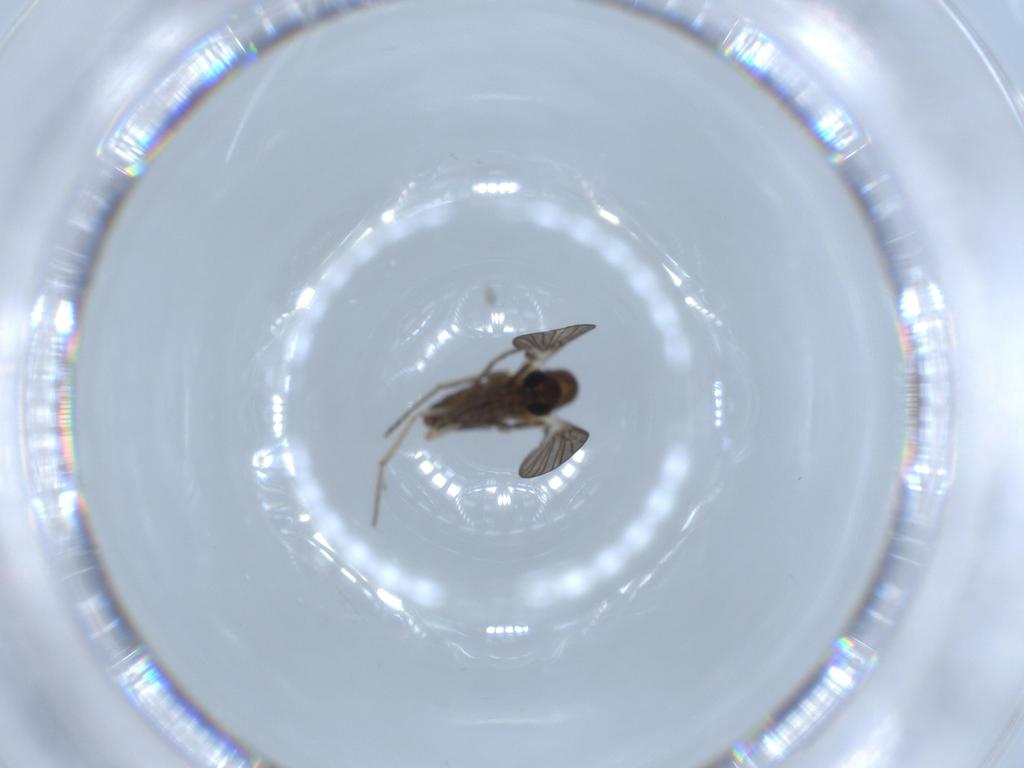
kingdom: Animalia
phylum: Arthropoda
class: Insecta
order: Diptera
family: Psychodidae
